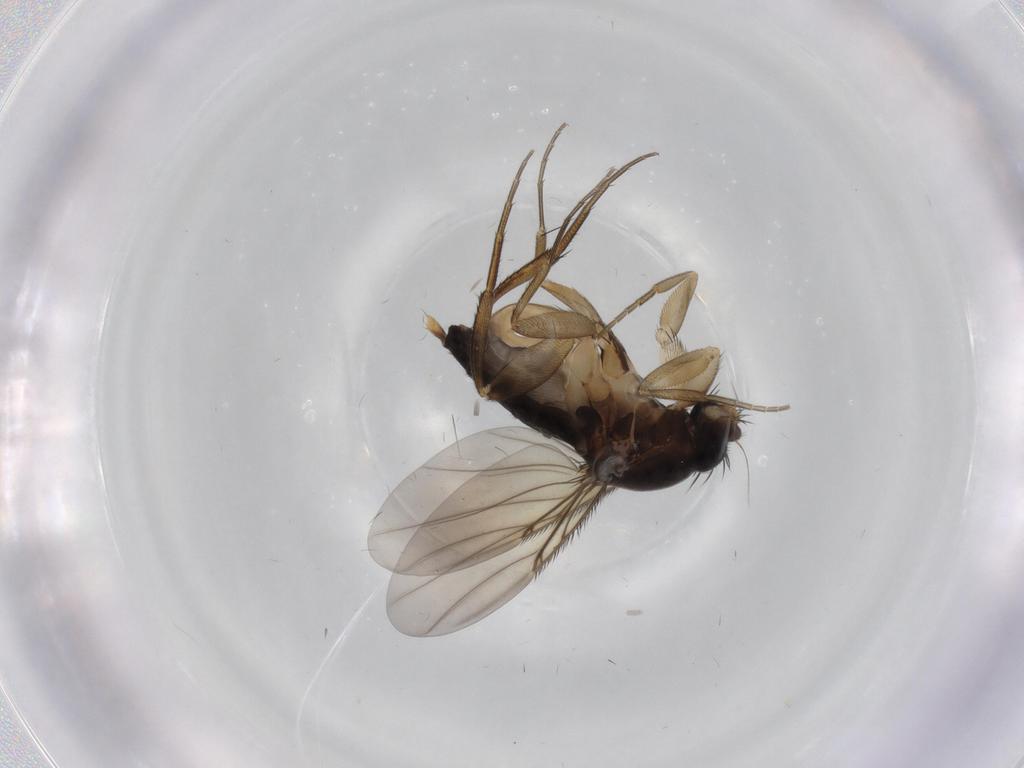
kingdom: Animalia
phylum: Arthropoda
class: Insecta
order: Diptera
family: Phoridae
